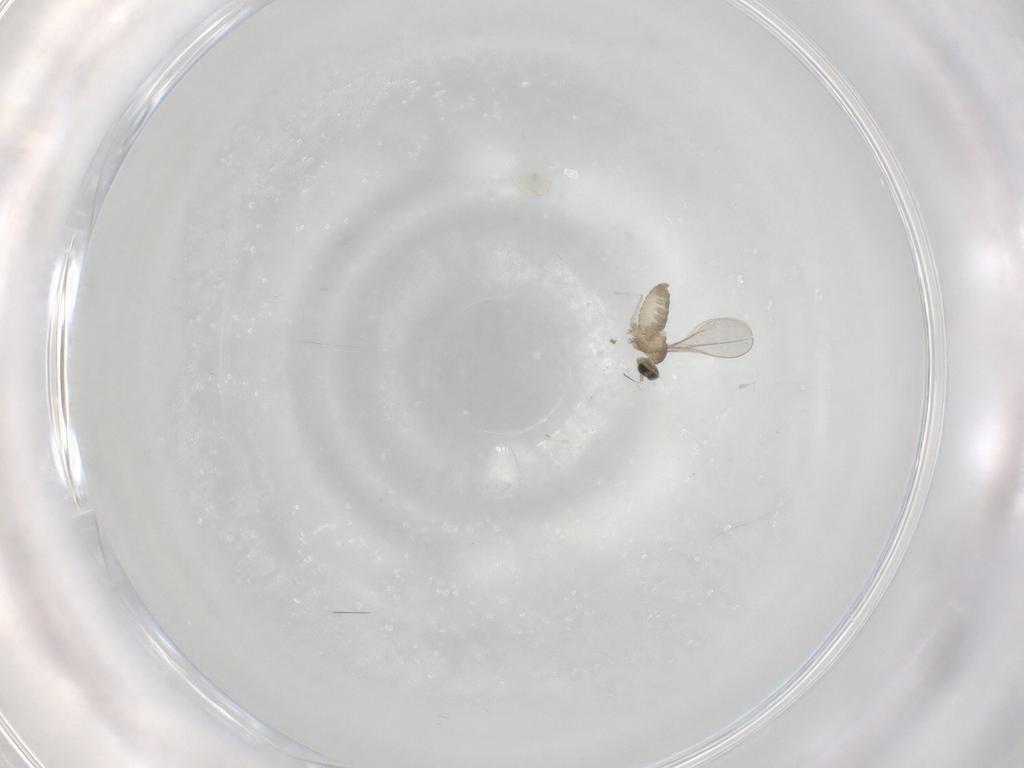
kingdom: Animalia
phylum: Arthropoda
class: Insecta
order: Diptera
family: Cecidomyiidae
